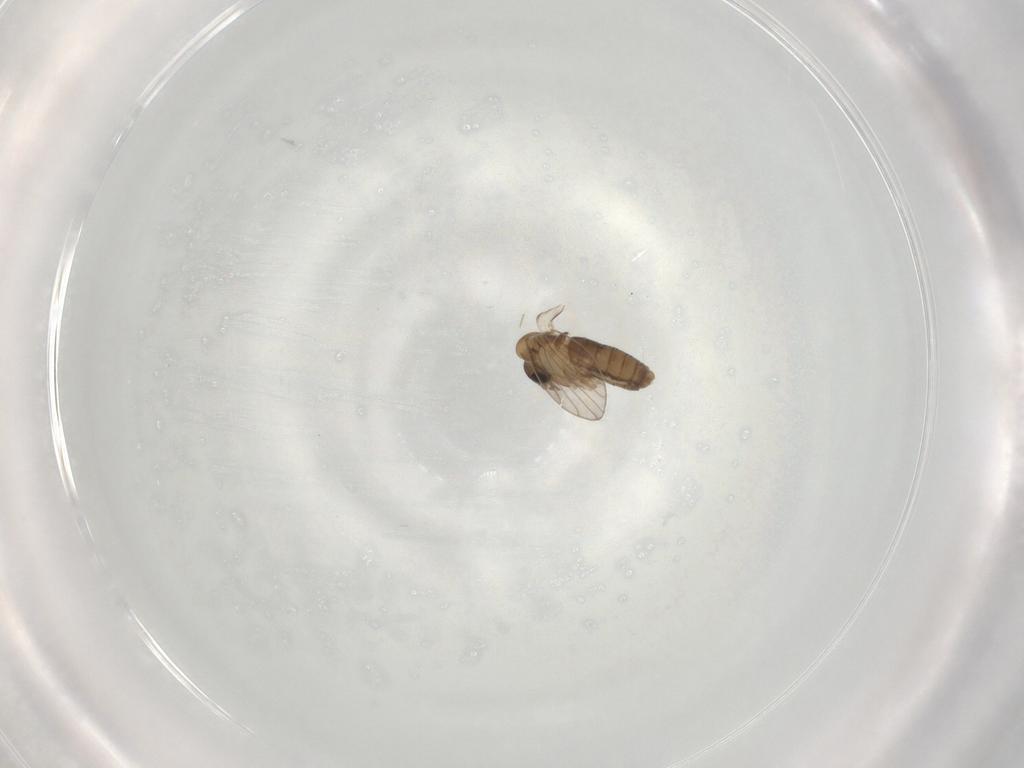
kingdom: Animalia
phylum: Arthropoda
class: Insecta
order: Diptera
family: Psychodidae
